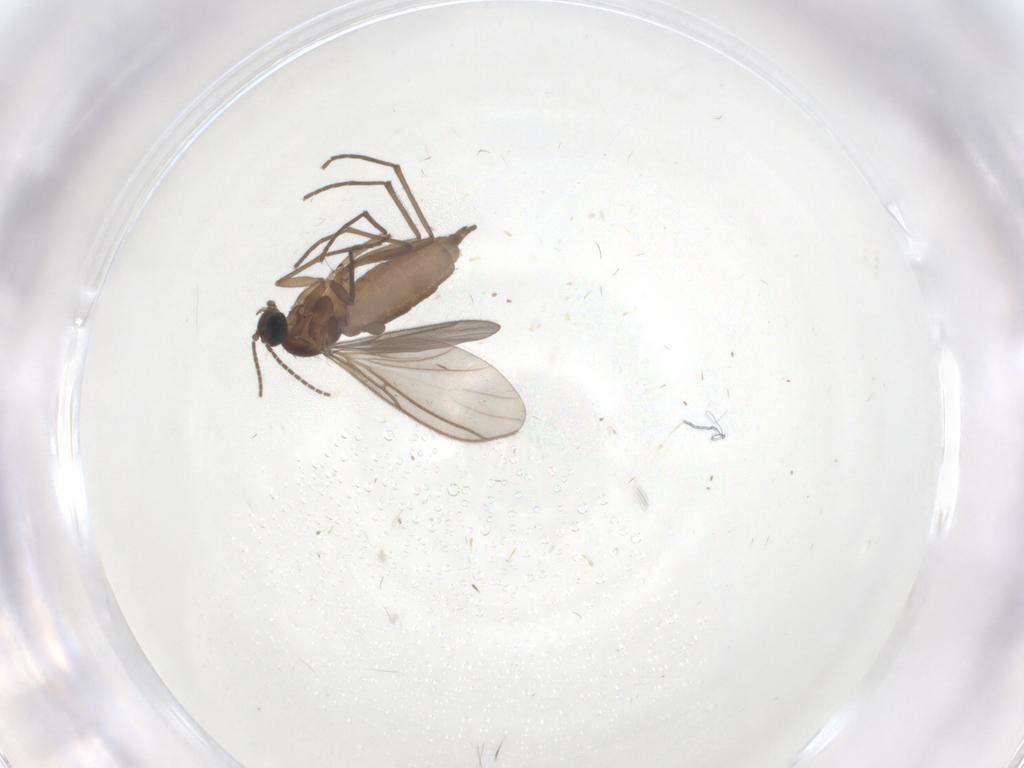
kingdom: Animalia
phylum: Arthropoda
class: Insecta
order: Diptera
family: Sciaridae
